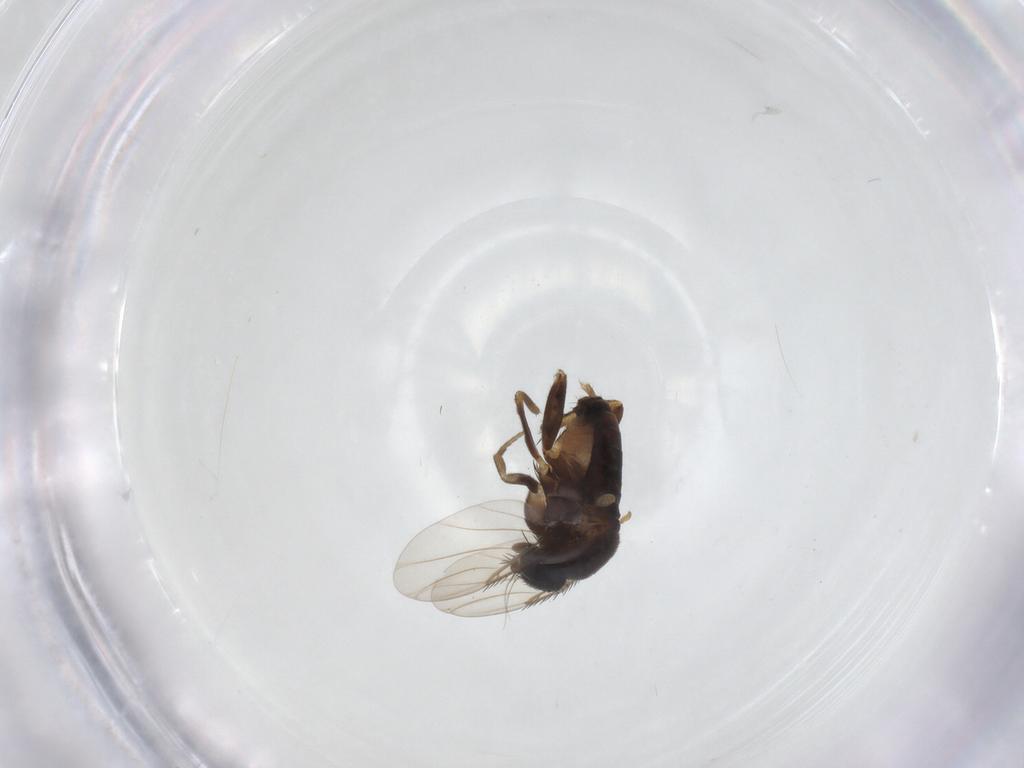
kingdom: Animalia
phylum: Arthropoda
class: Insecta
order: Diptera
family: Phoridae
